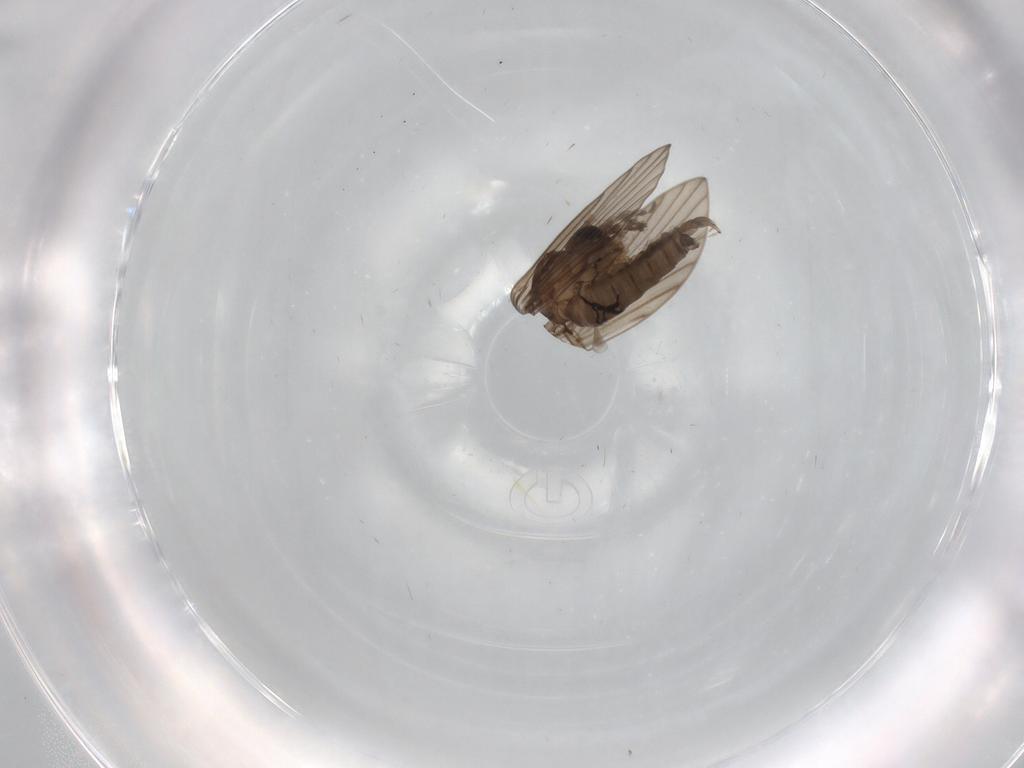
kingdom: Animalia
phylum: Arthropoda
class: Insecta
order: Diptera
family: Psychodidae
